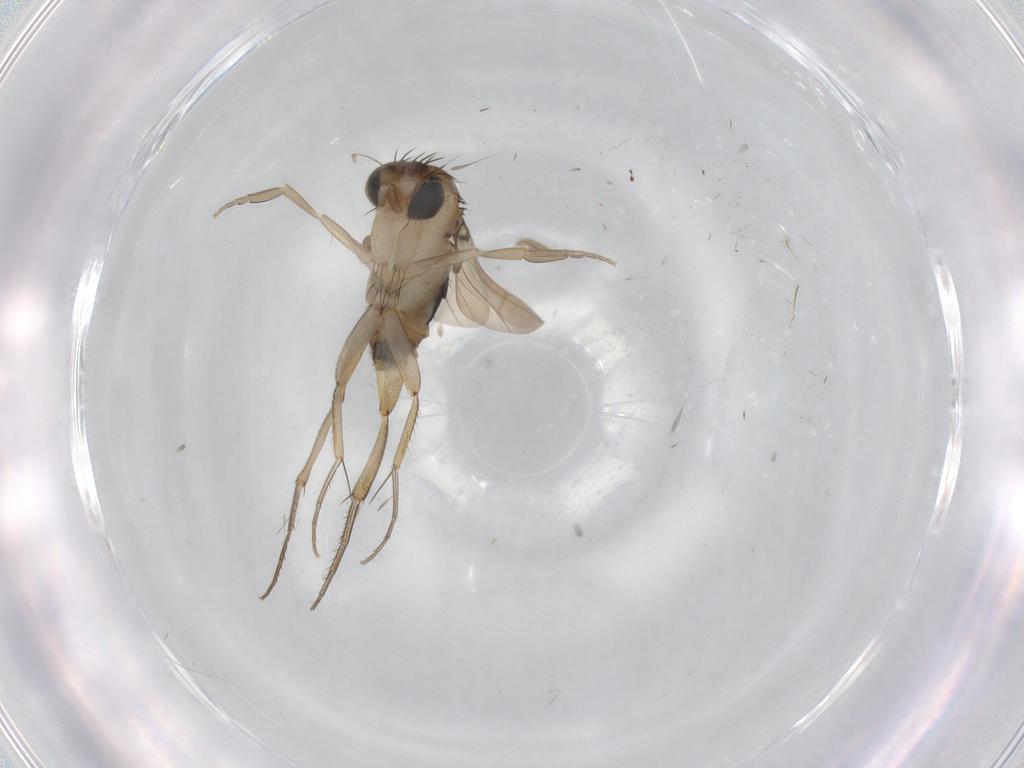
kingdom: Animalia
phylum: Arthropoda
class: Insecta
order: Diptera
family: Phoridae
